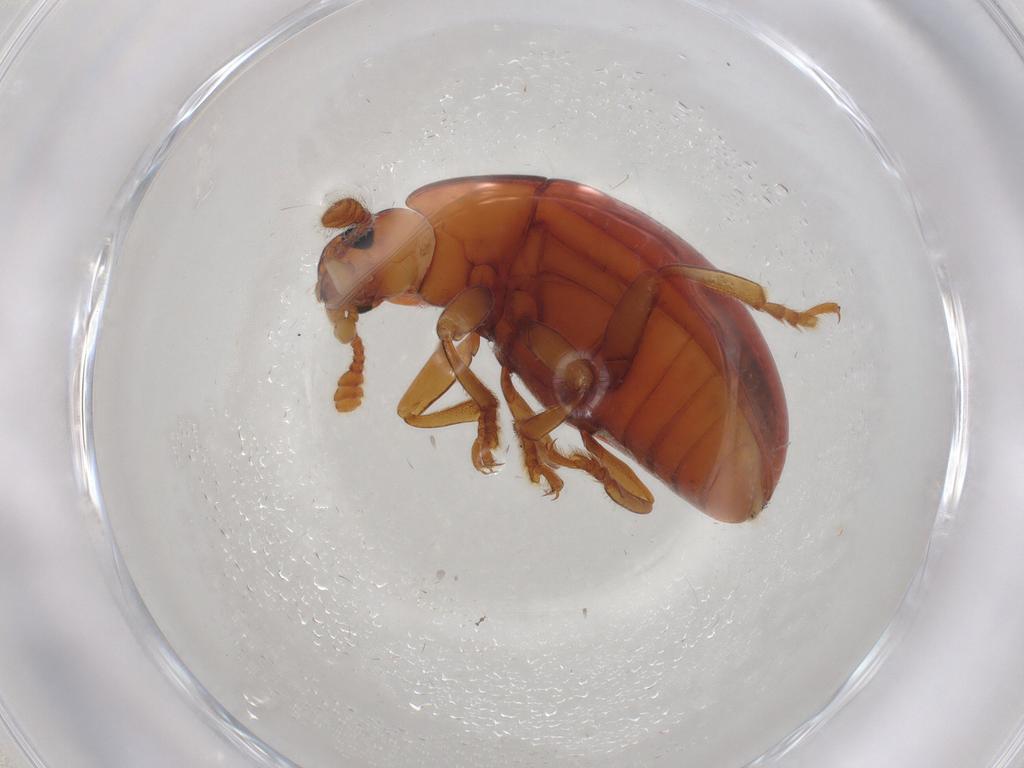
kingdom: Animalia
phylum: Arthropoda
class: Insecta
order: Coleoptera
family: Erotylidae
